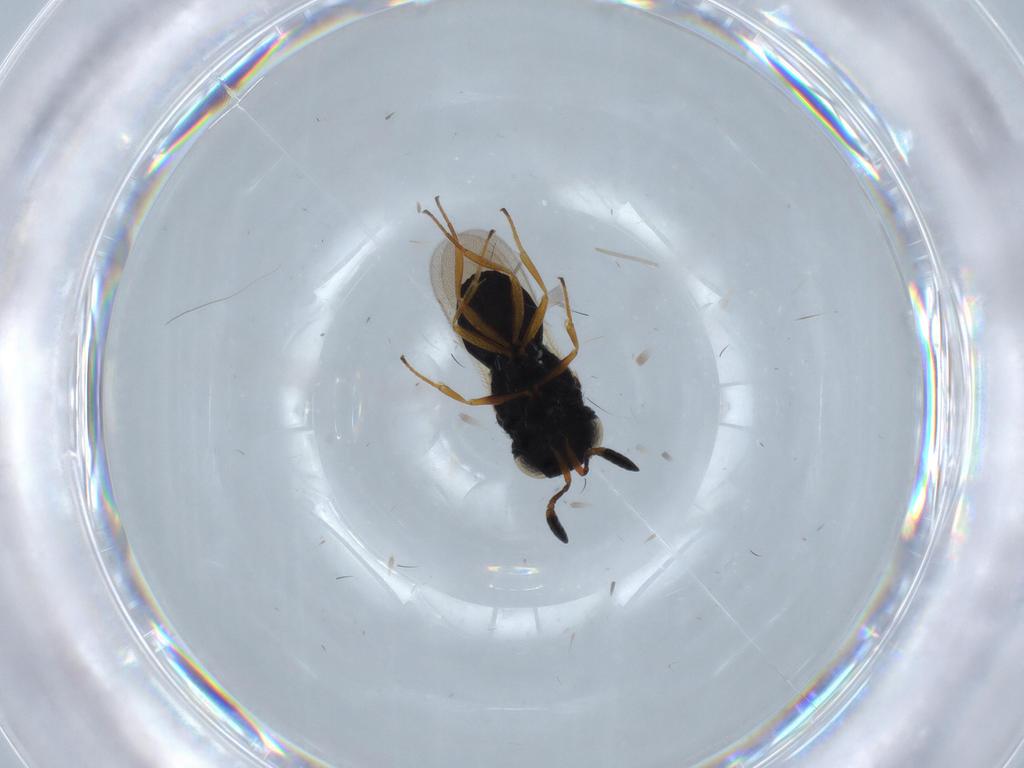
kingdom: Animalia
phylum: Arthropoda
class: Insecta
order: Hymenoptera
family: Scelionidae
